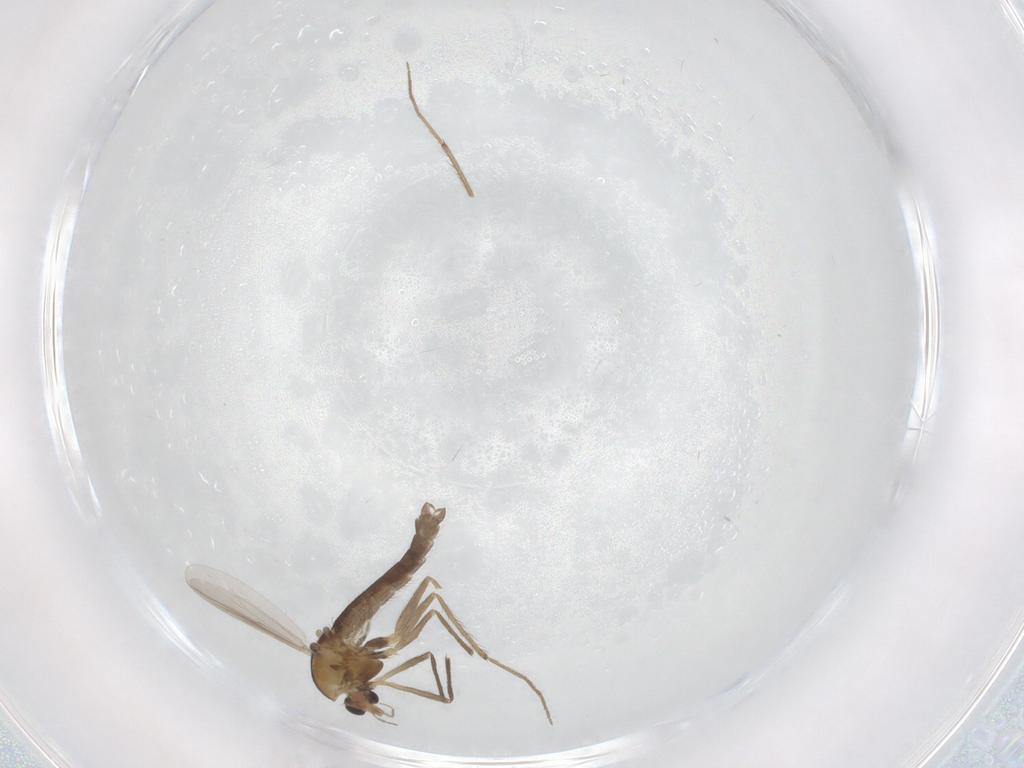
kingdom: Animalia
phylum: Arthropoda
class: Insecta
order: Diptera
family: Chironomidae
